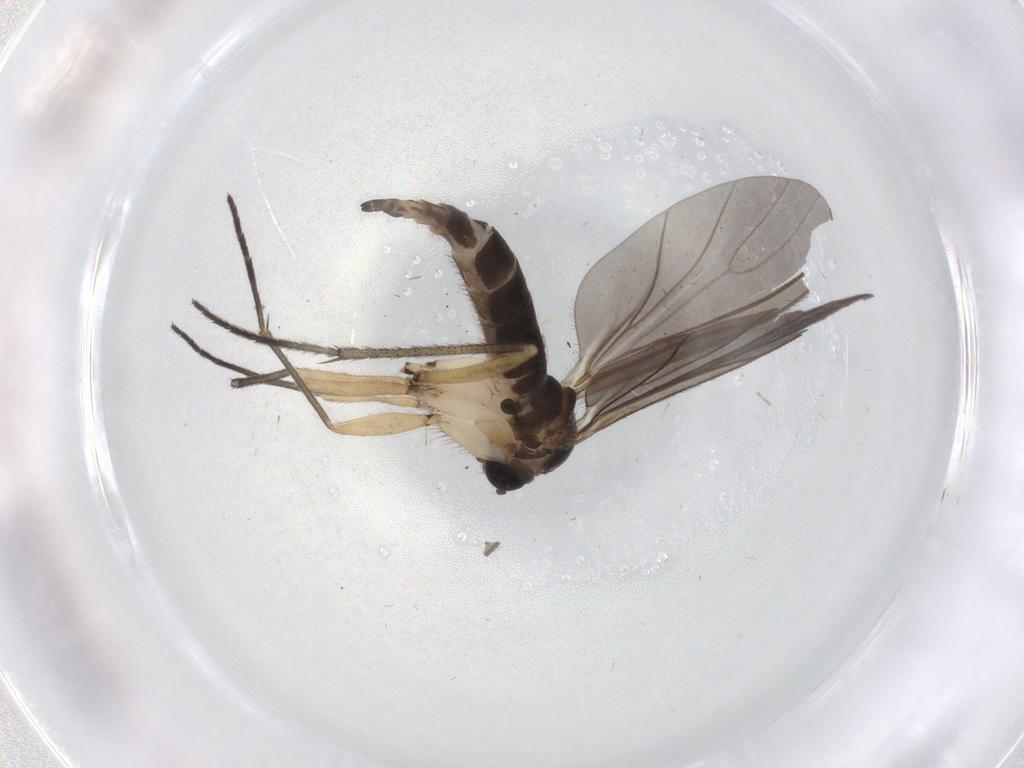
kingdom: Animalia
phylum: Arthropoda
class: Insecta
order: Diptera
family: Sciaridae
